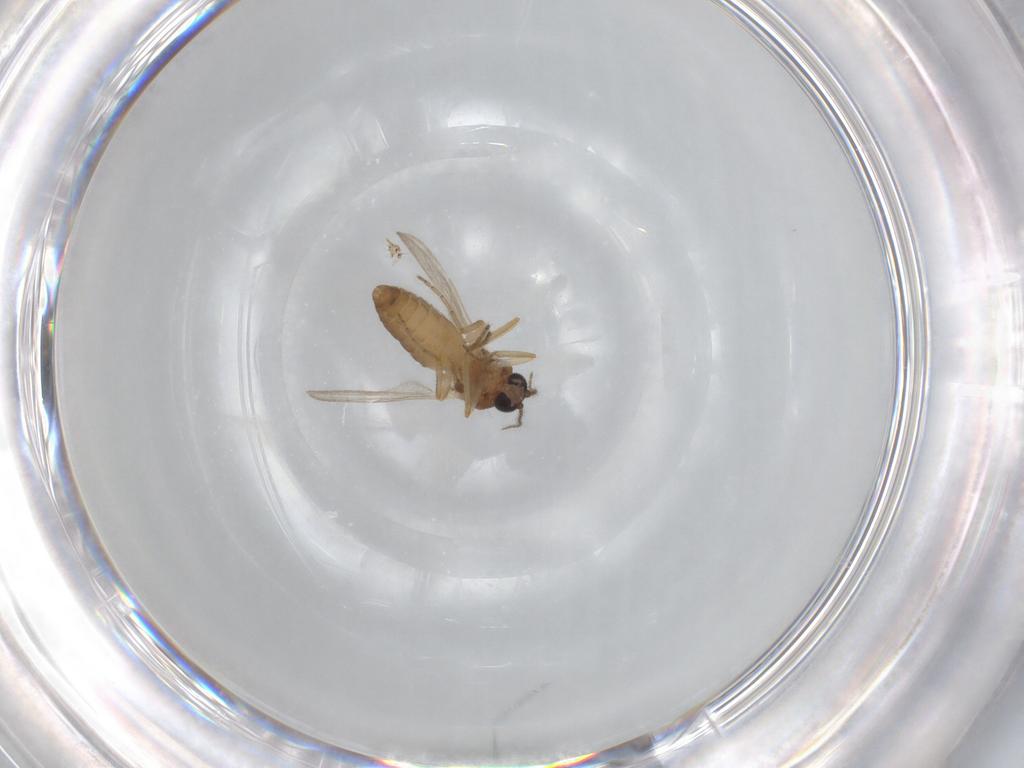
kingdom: Animalia
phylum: Arthropoda
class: Insecta
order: Diptera
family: Ceratopogonidae
